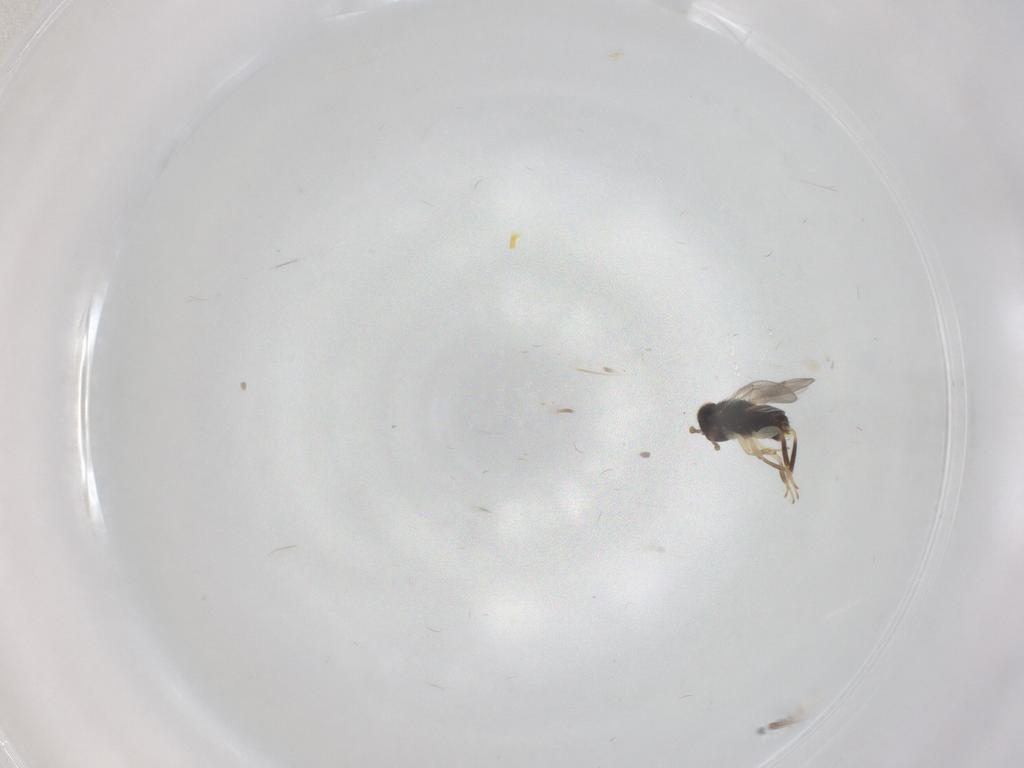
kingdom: Animalia
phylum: Arthropoda
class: Insecta
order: Hymenoptera
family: Aphelinidae
